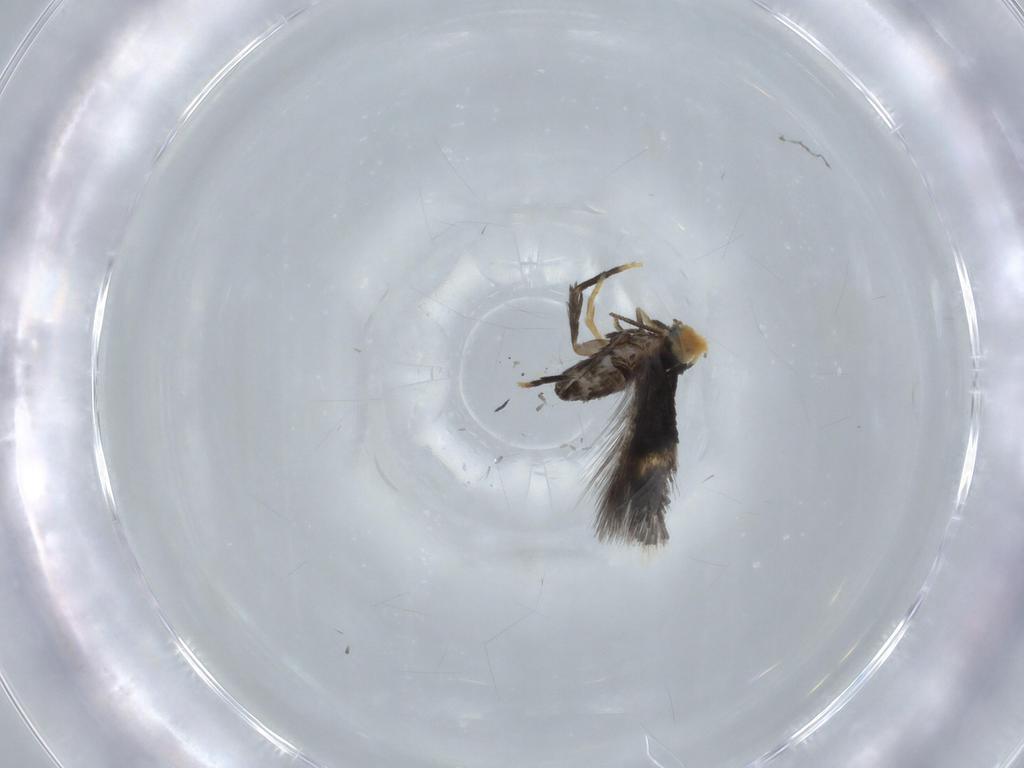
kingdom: Animalia
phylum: Arthropoda
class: Insecta
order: Lepidoptera
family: Nepticulidae
